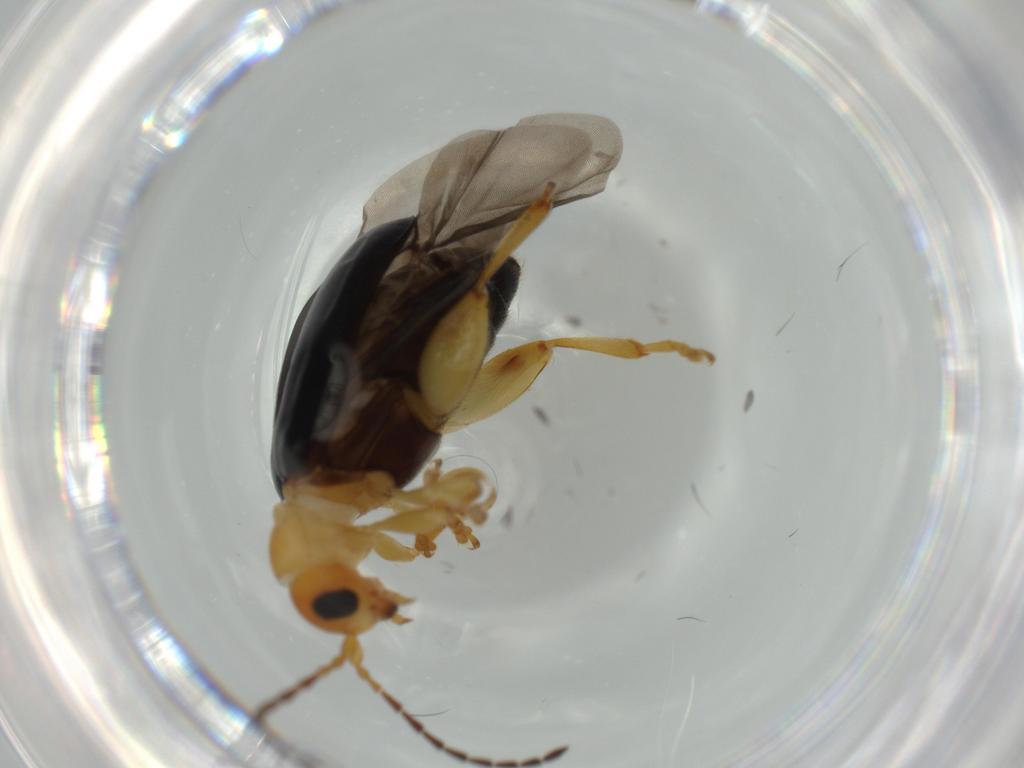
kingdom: Animalia
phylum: Arthropoda
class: Insecta
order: Coleoptera
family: Chrysomelidae
